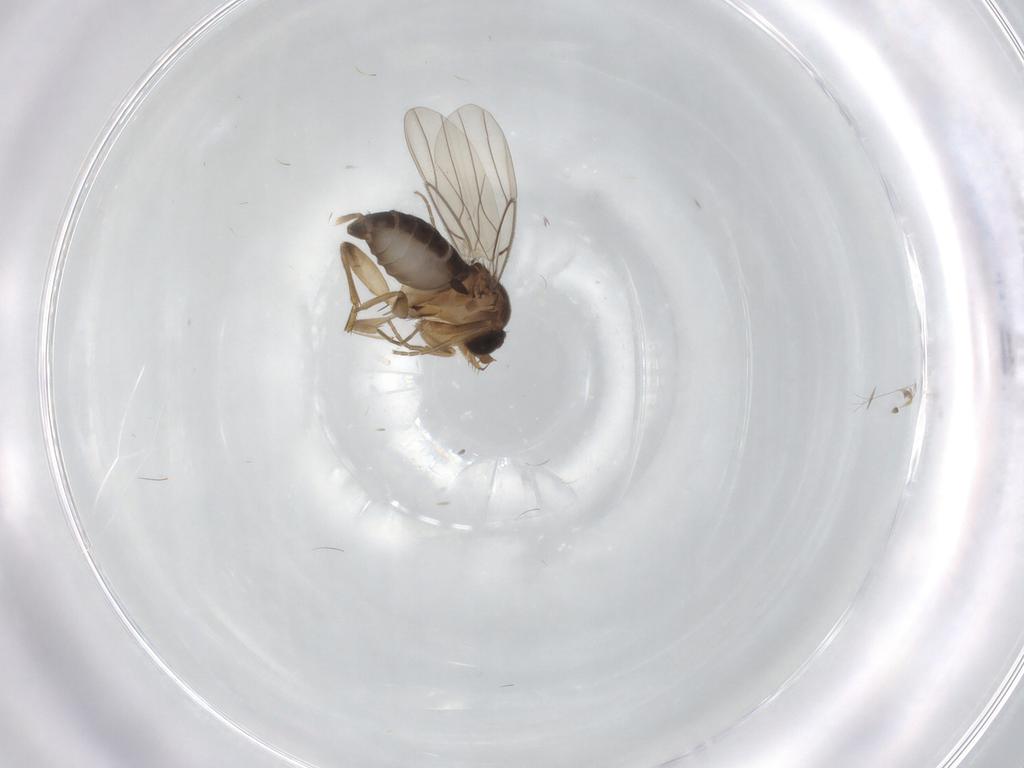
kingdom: Animalia
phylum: Arthropoda
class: Insecta
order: Diptera
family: Phoridae
